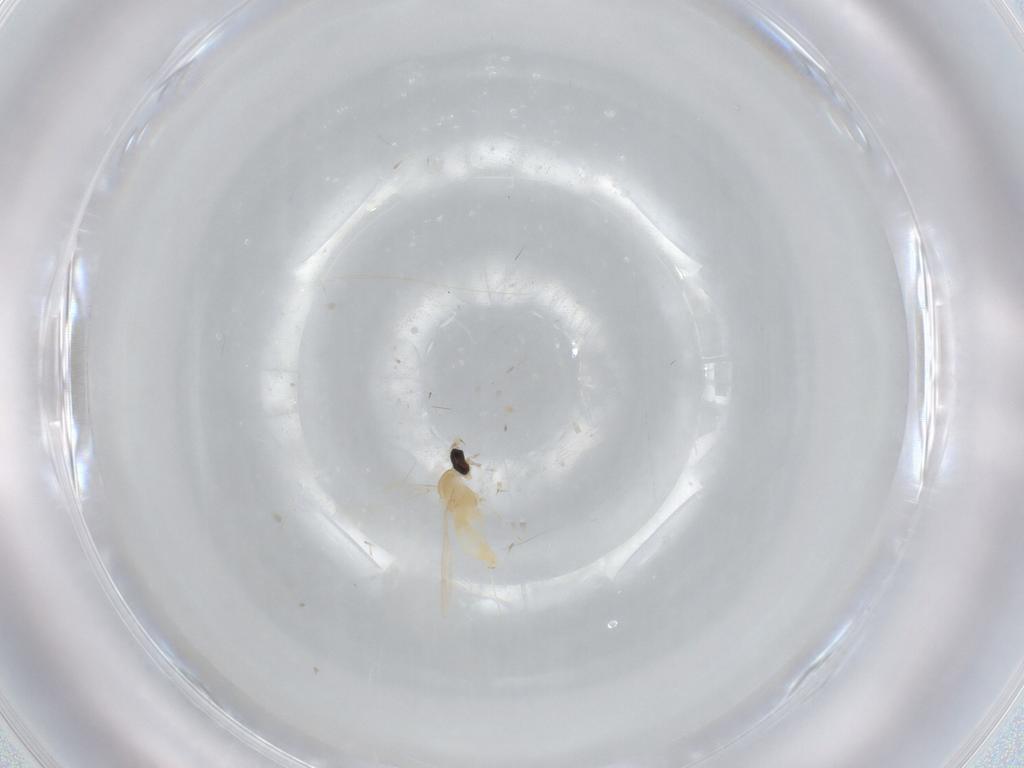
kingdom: Animalia
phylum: Arthropoda
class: Insecta
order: Diptera
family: Cecidomyiidae
